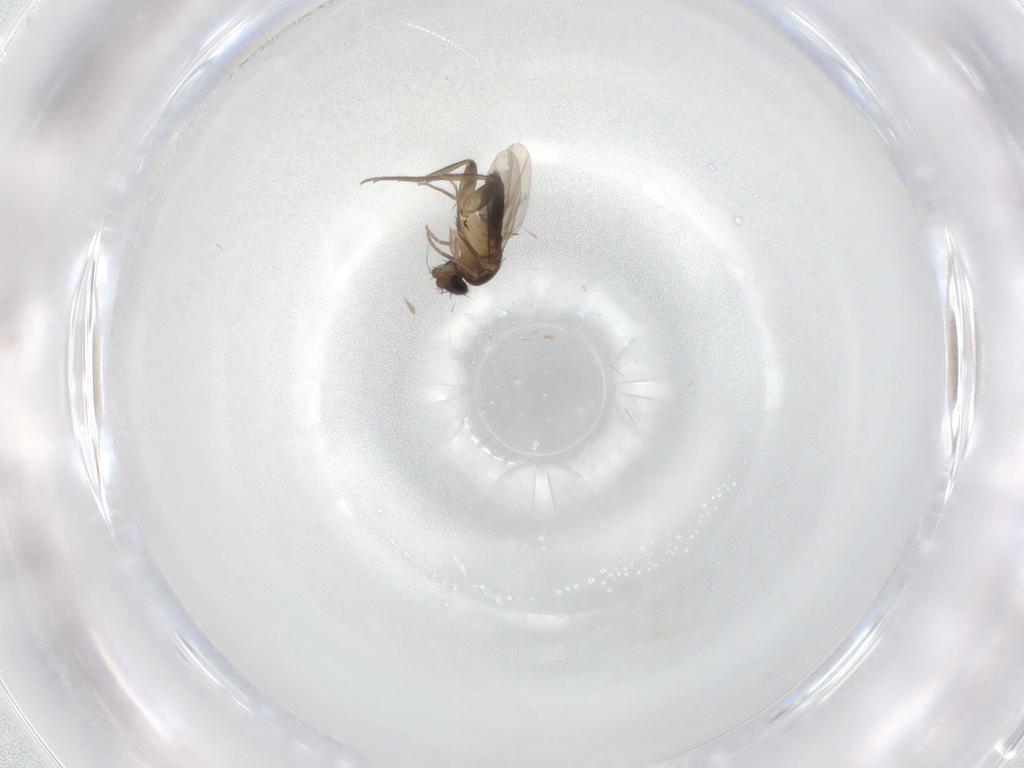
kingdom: Animalia
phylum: Arthropoda
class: Insecta
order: Diptera
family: Phoridae
